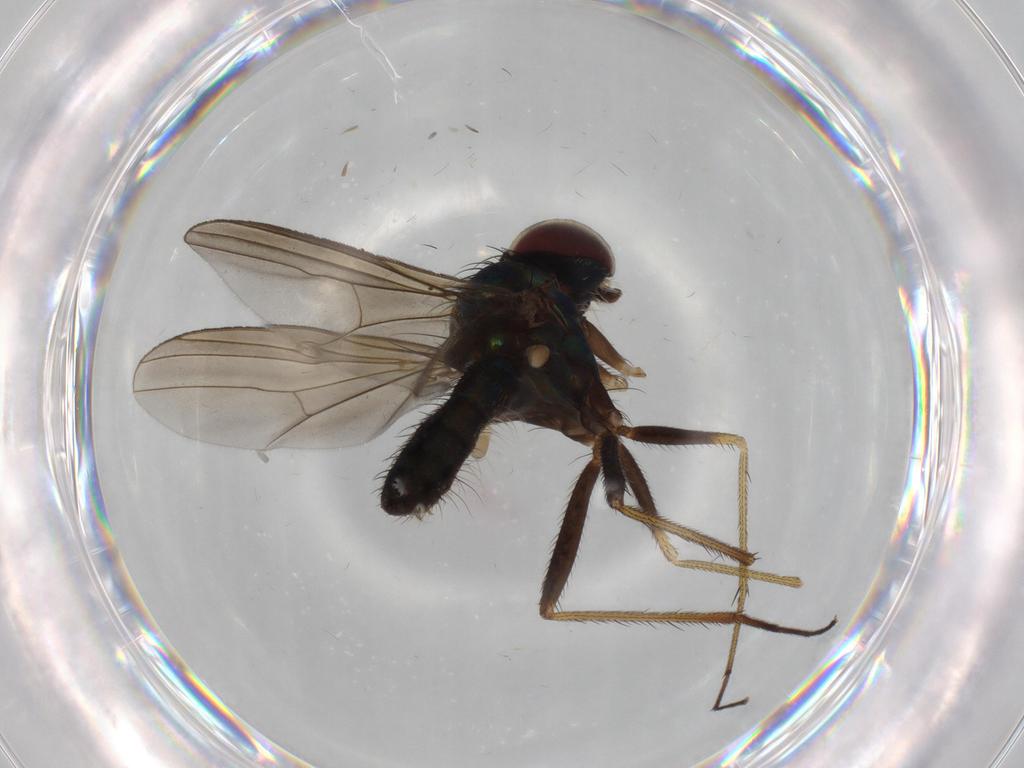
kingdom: Animalia
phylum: Arthropoda
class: Insecta
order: Diptera
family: Dolichopodidae
